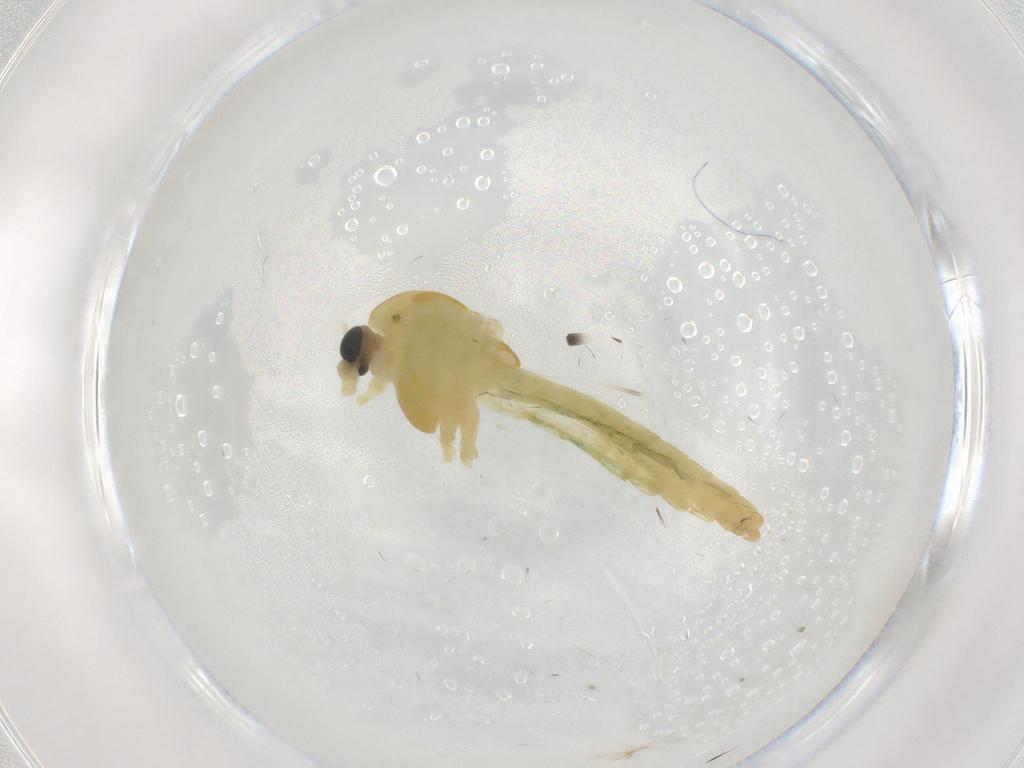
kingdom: Animalia
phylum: Arthropoda
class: Insecta
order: Diptera
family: Chironomidae
